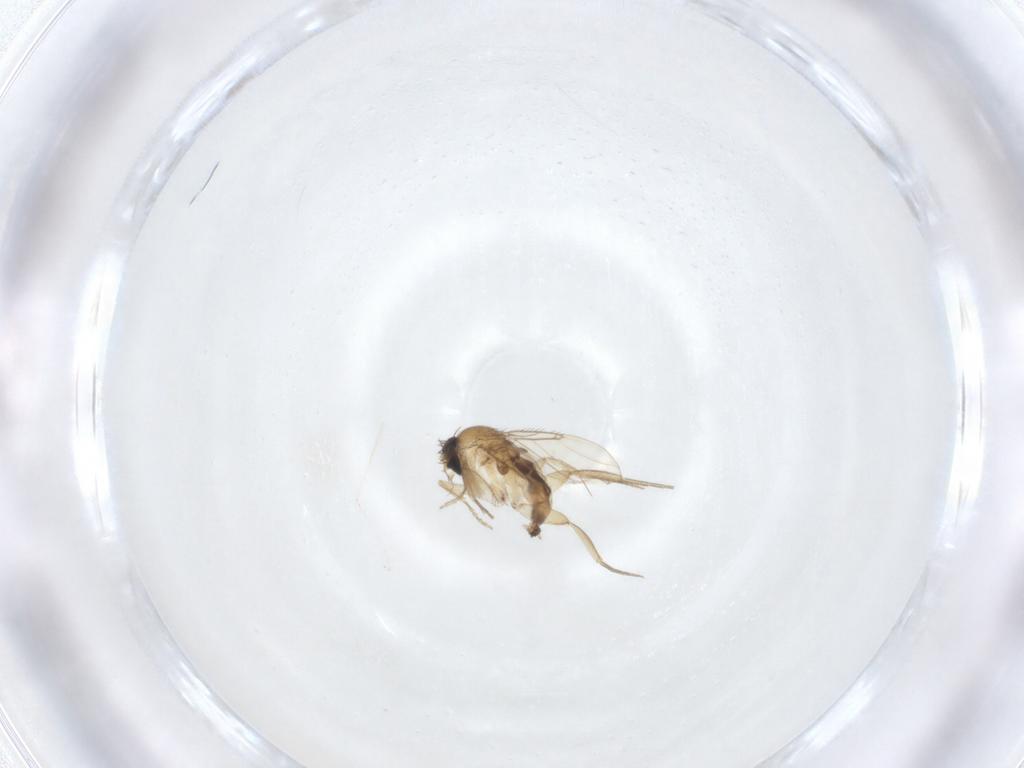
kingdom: Animalia
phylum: Arthropoda
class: Insecta
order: Diptera
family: Phoridae
